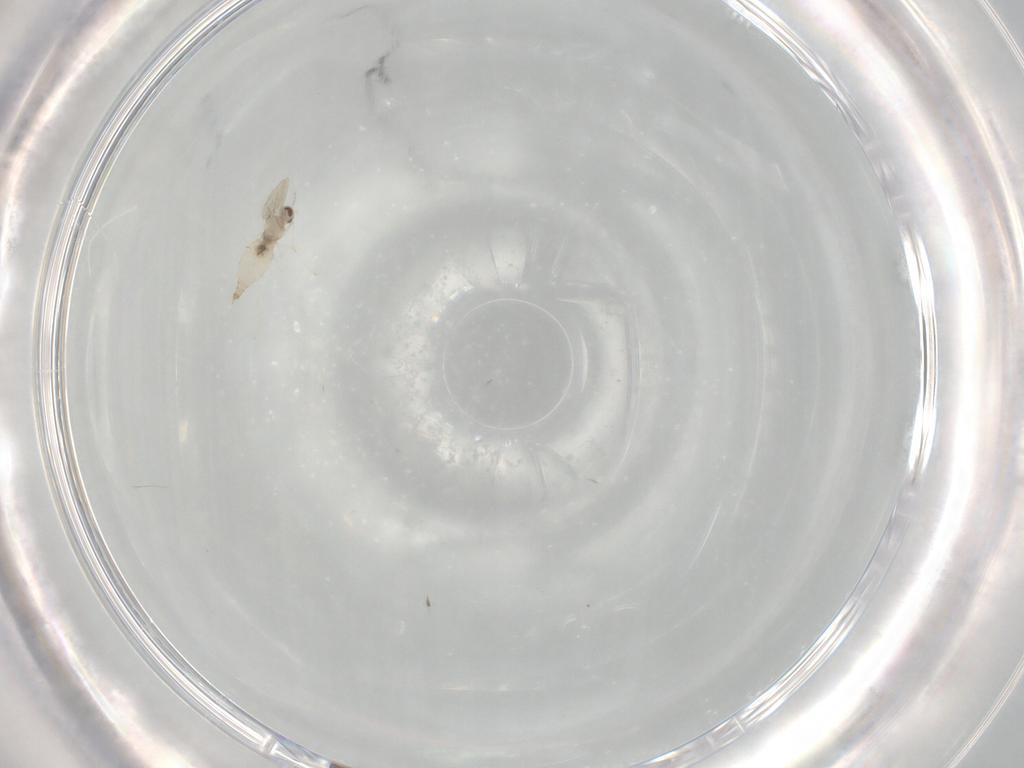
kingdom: Animalia
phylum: Arthropoda
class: Insecta
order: Diptera
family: Cecidomyiidae
